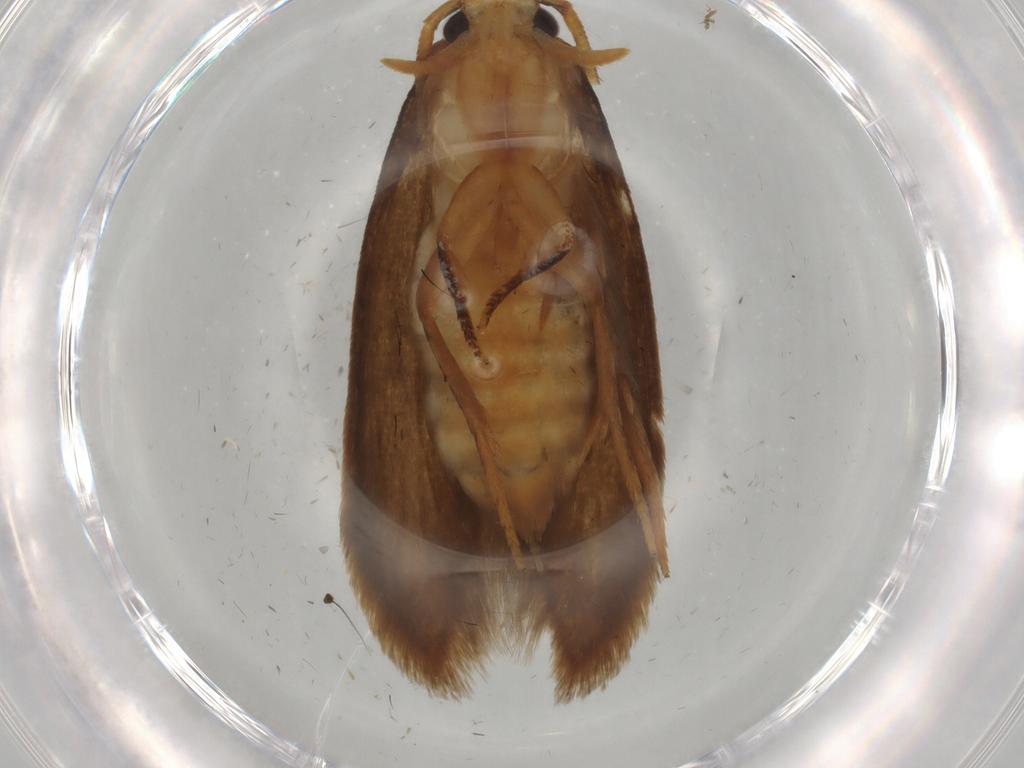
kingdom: Animalia
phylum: Arthropoda
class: Insecta
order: Lepidoptera
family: Tineidae
